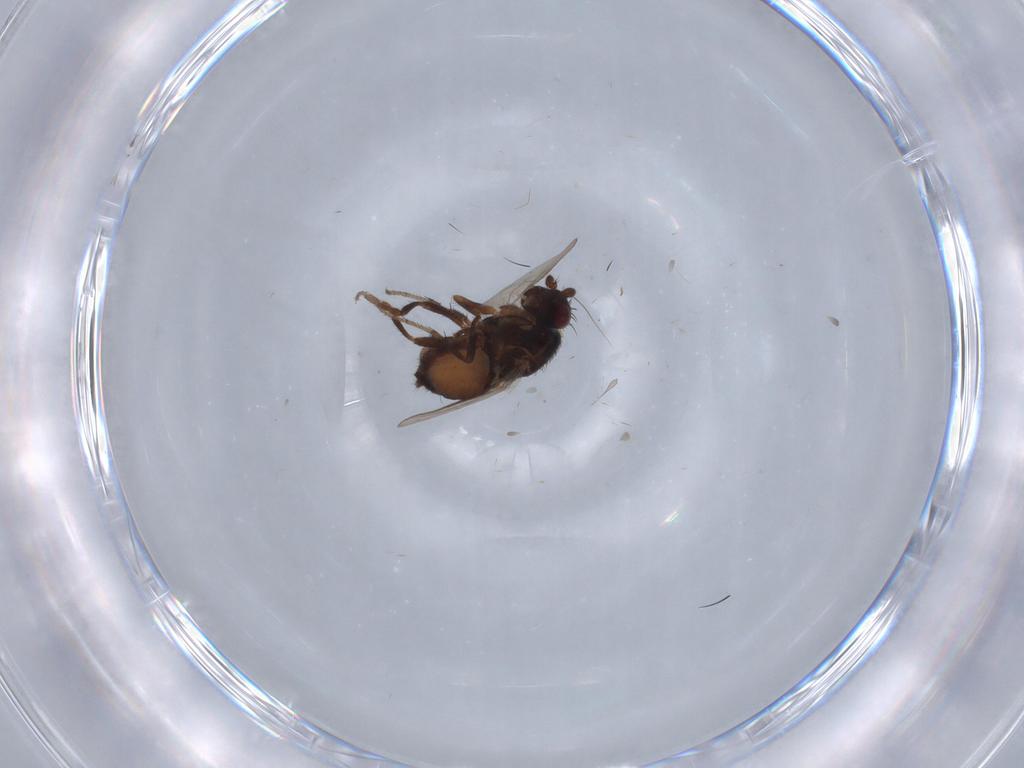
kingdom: Animalia
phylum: Arthropoda
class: Insecta
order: Diptera
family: Sphaeroceridae
